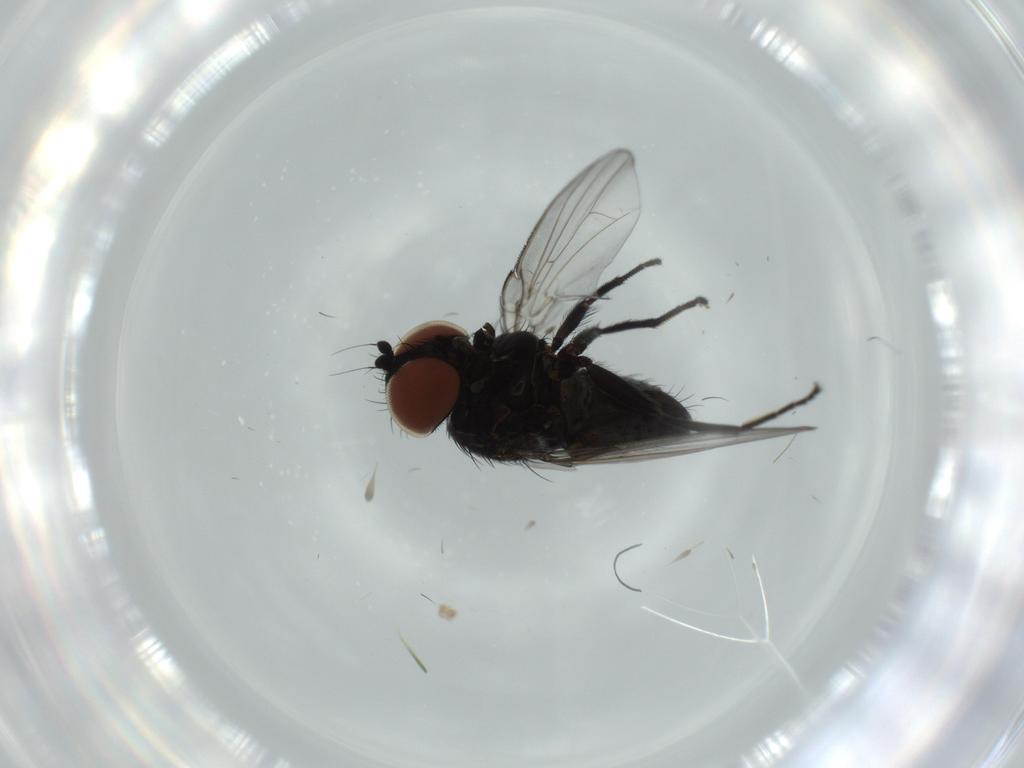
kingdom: Animalia
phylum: Arthropoda
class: Insecta
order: Diptera
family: Milichiidae
